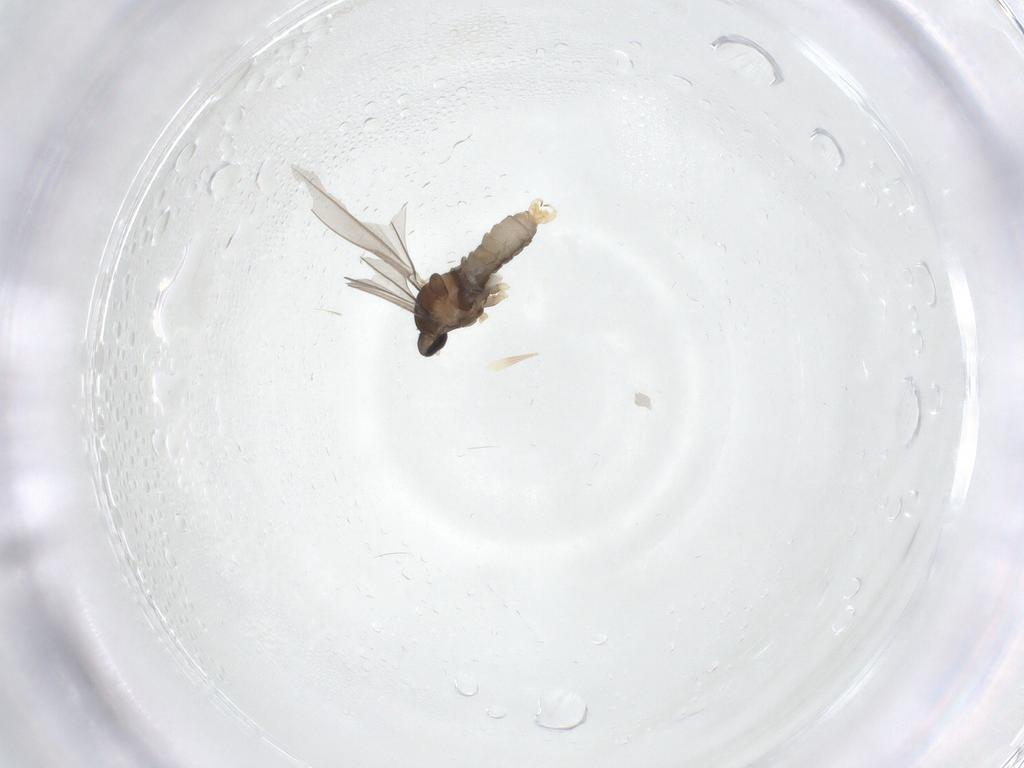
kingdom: Animalia
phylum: Arthropoda
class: Insecta
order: Diptera
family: Cecidomyiidae
